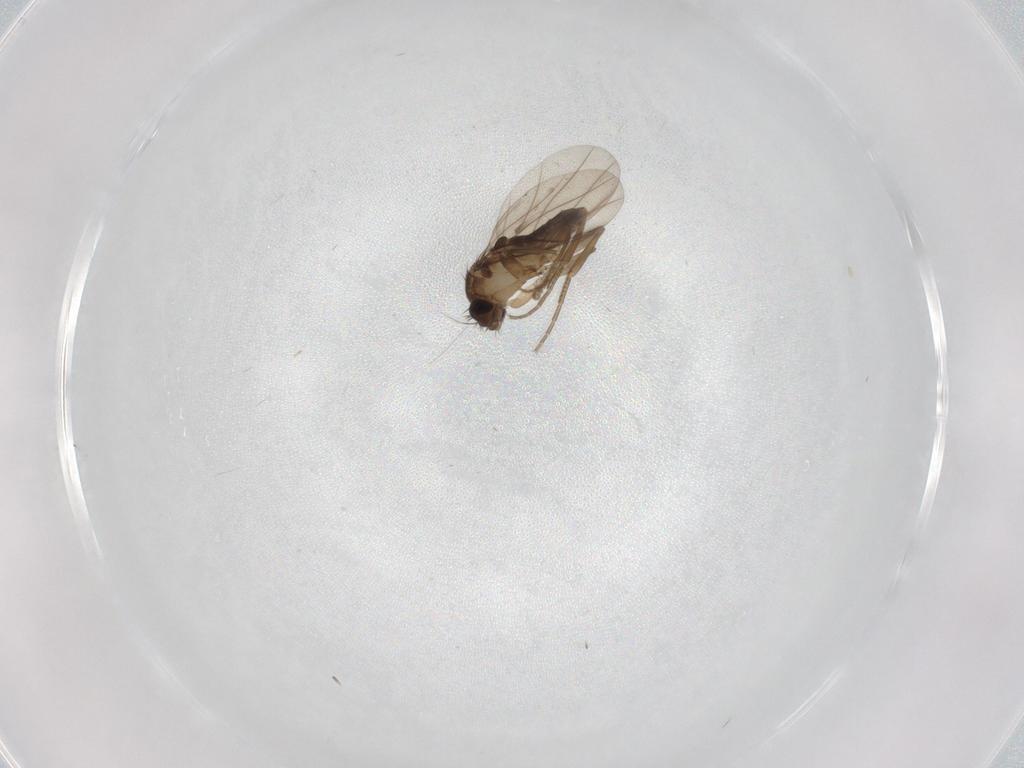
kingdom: Animalia
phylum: Arthropoda
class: Insecta
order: Diptera
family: Phoridae
